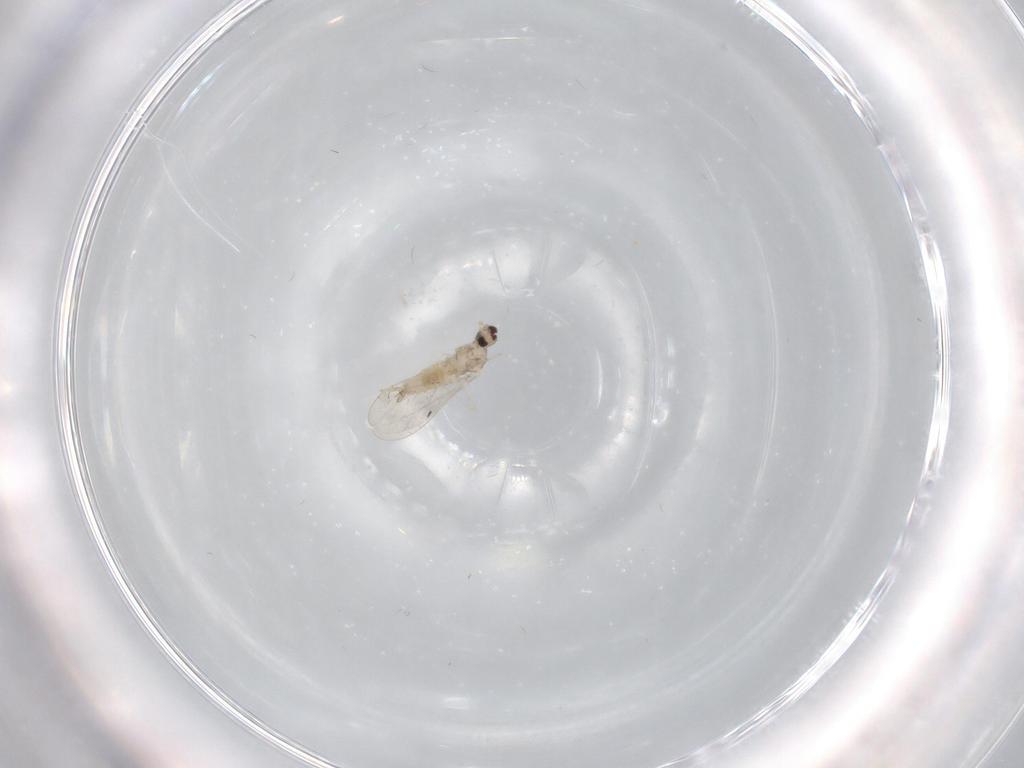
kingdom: Animalia
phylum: Arthropoda
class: Insecta
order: Diptera
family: Cecidomyiidae
